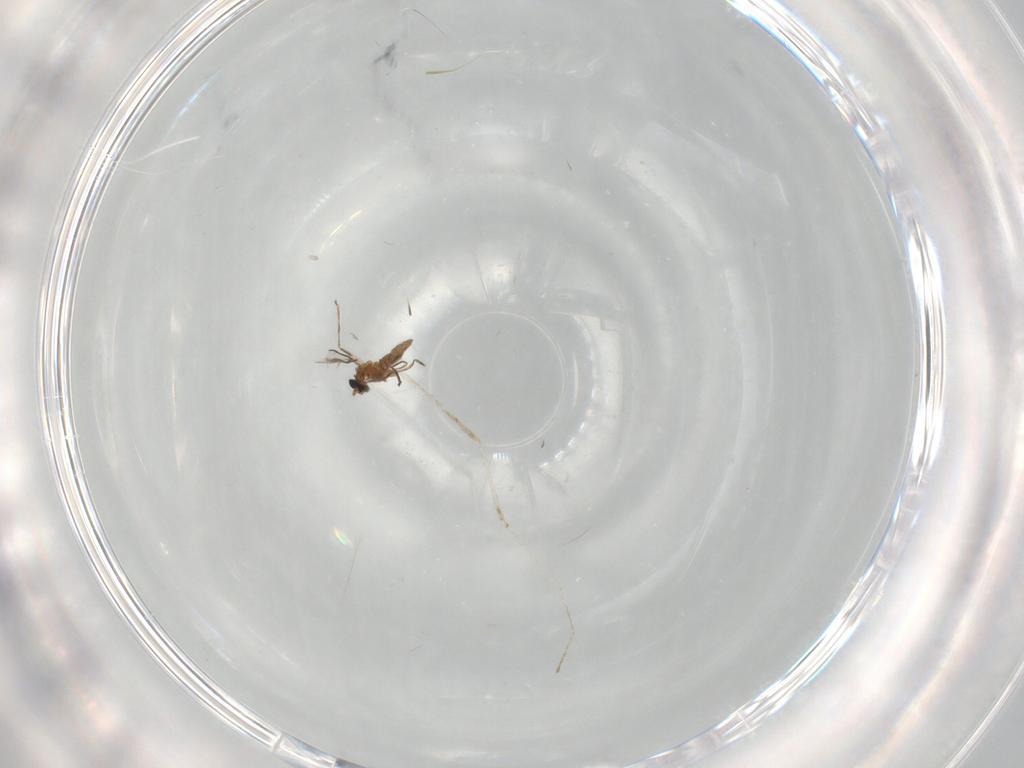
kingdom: Animalia
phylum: Arthropoda
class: Insecta
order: Diptera
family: Cecidomyiidae
